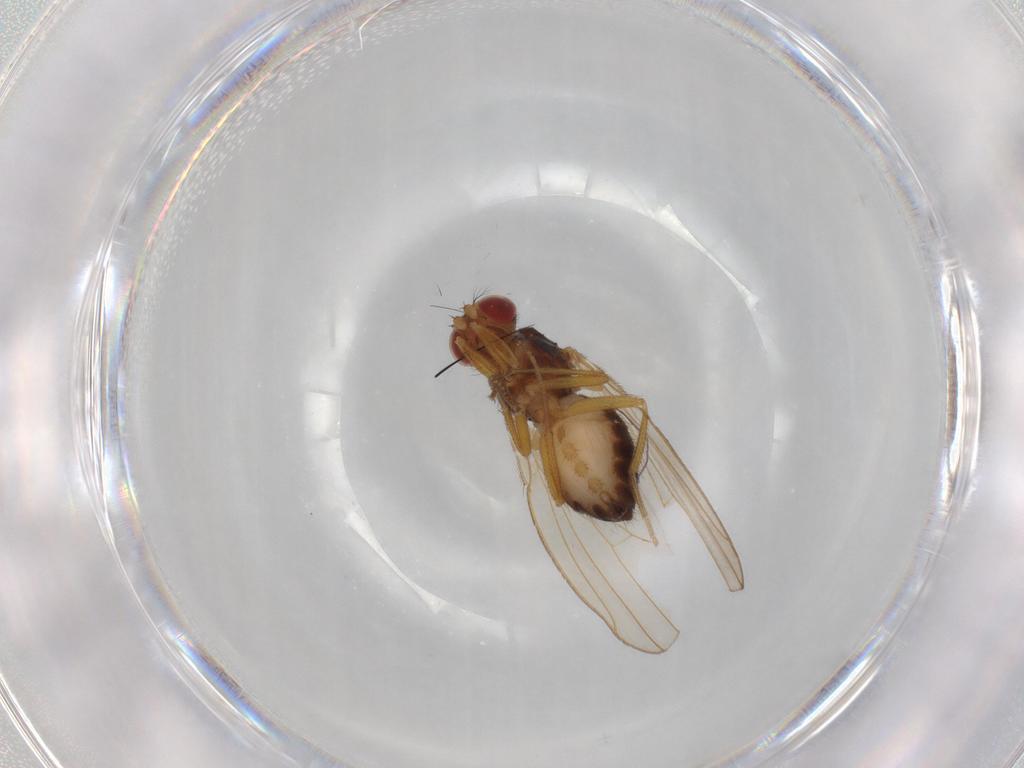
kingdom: Animalia
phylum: Arthropoda
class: Insecta
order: Diptera
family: Drosophilidae
